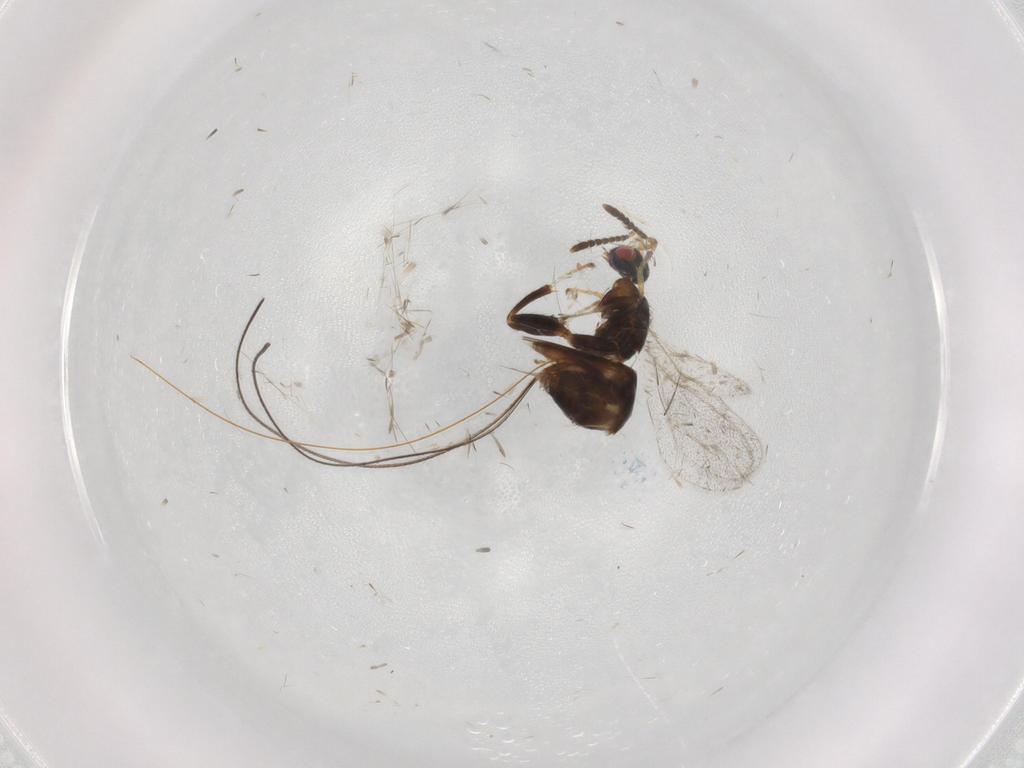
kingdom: Animalia
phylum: Arthropoda
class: Insecta
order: Hymenoptera
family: Torymidae
